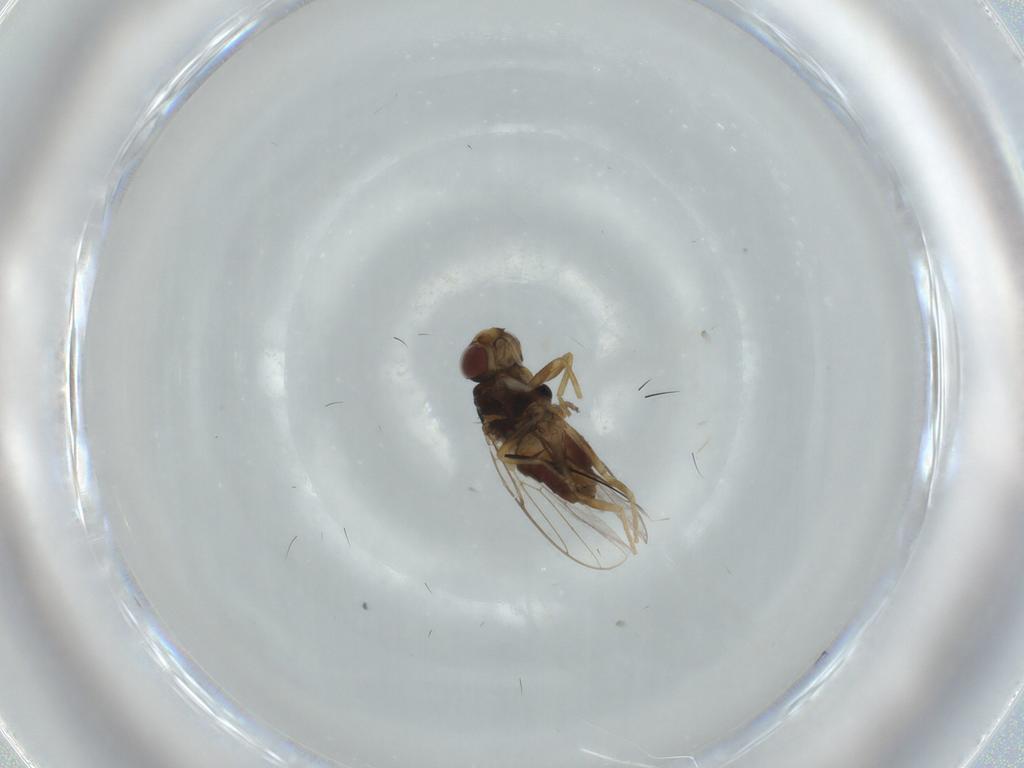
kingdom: Animalia
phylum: Arthropoda
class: Insecta
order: Diptera
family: Chloropidae
